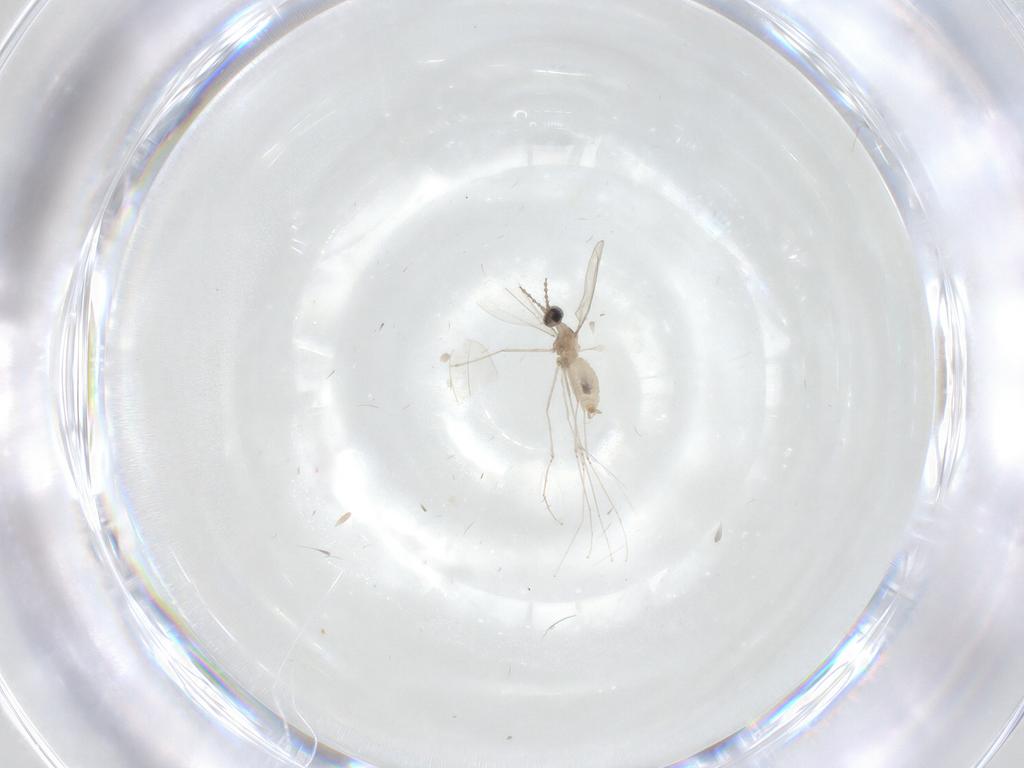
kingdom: Animalia
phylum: Arthropoda
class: Insecta
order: Diptera
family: Cecidomyiidae
